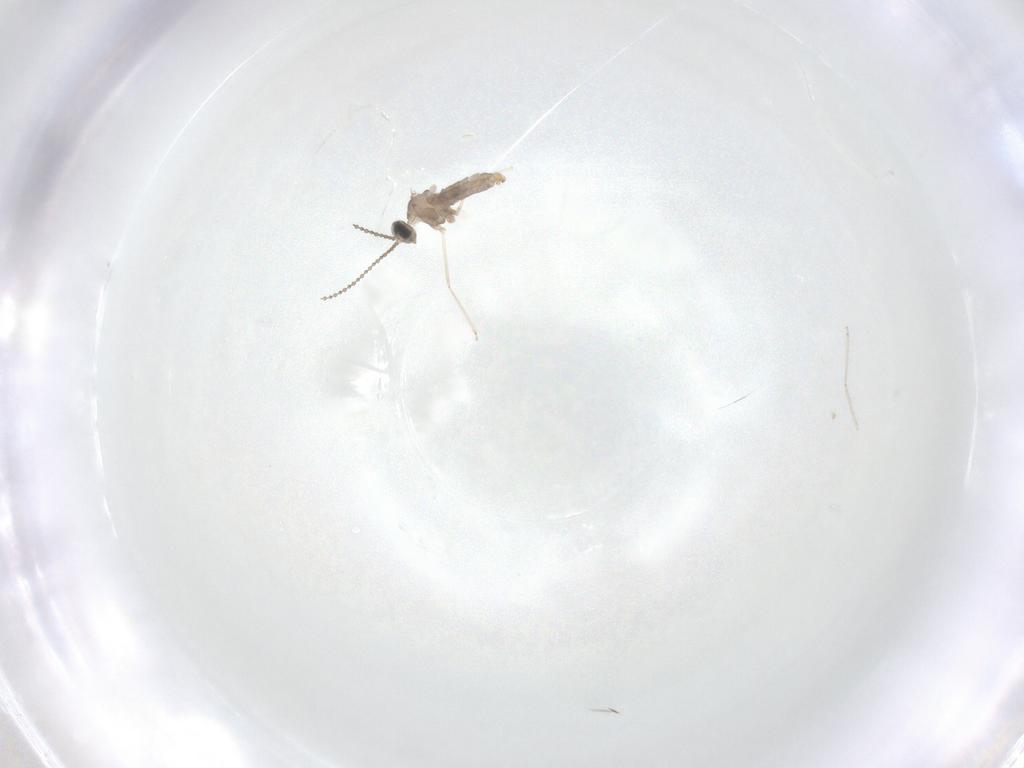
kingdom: Animalia
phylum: Arthropoda
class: Insecta
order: Diptera
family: Cecidomyiidae
